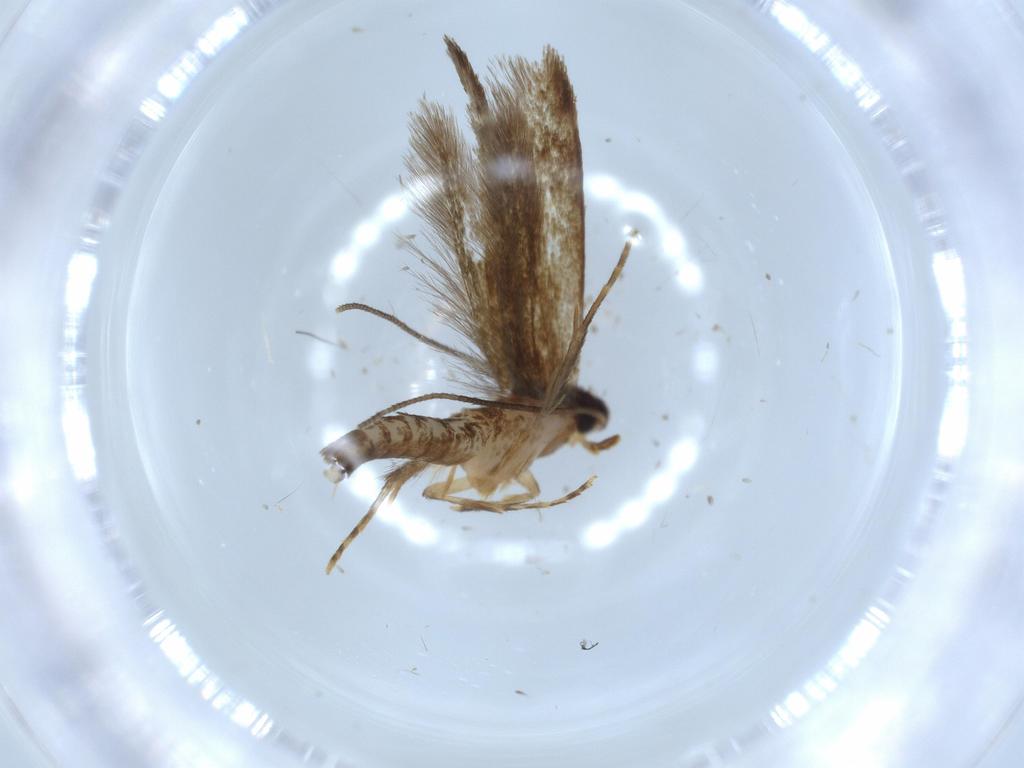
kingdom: Animalia
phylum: Arthropoda
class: Insecta
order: Lepidoptera
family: Tineidae
